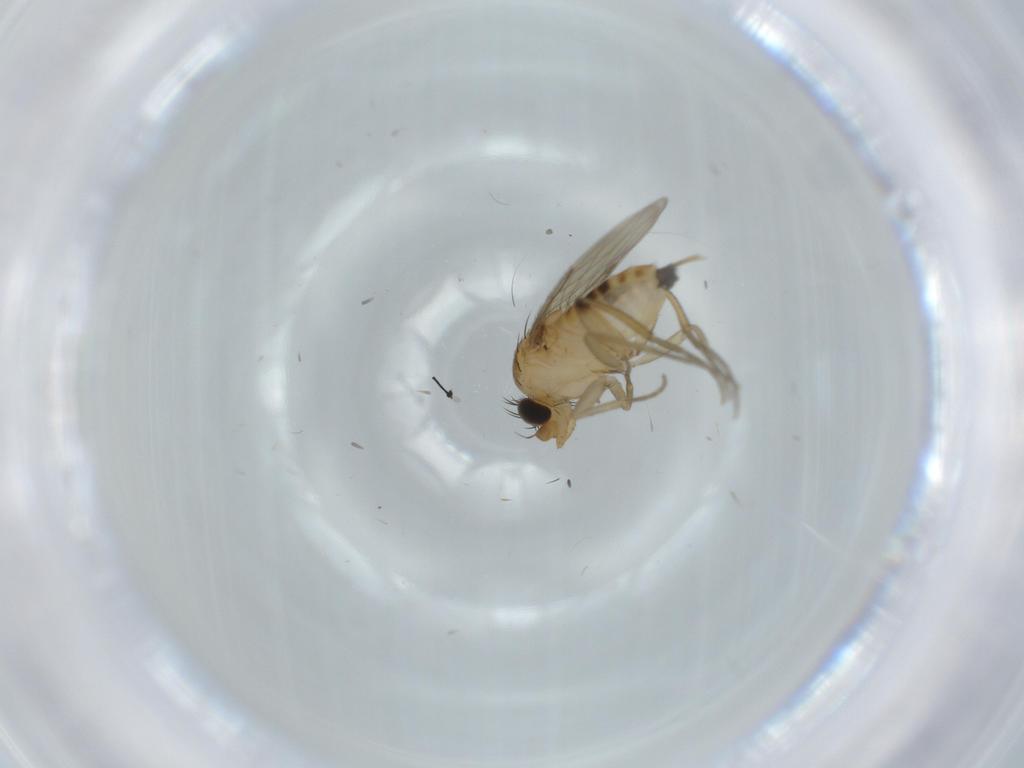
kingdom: Animalia
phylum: Arthropoda
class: Insecta
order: Diptera
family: Phoridae
